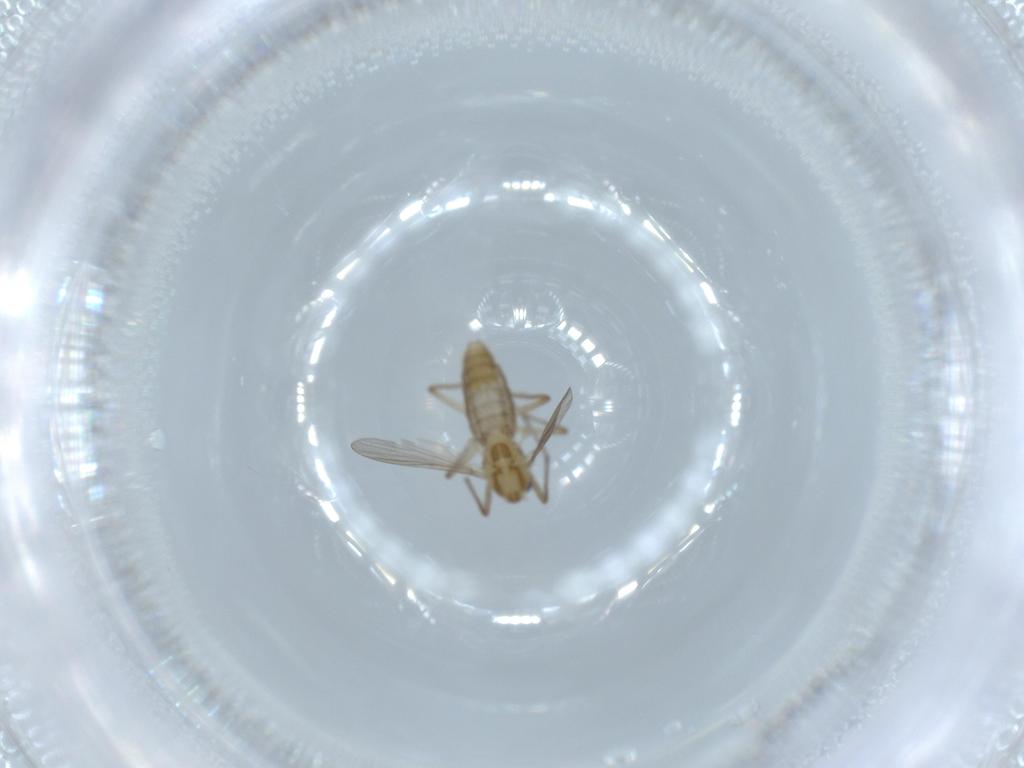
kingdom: Animalia
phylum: Arthropoda
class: Insecta
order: Diptera
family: Chironomidae
